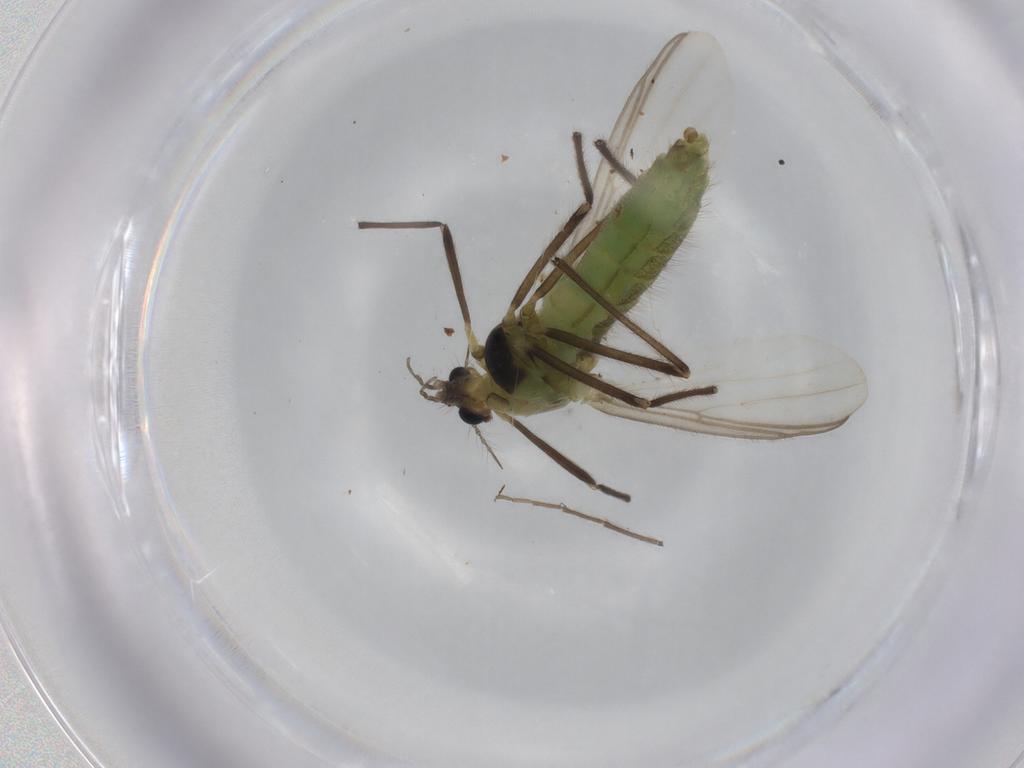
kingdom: Animalia
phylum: Arthropoda
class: Insecta
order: Diptera
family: Chironomidae
